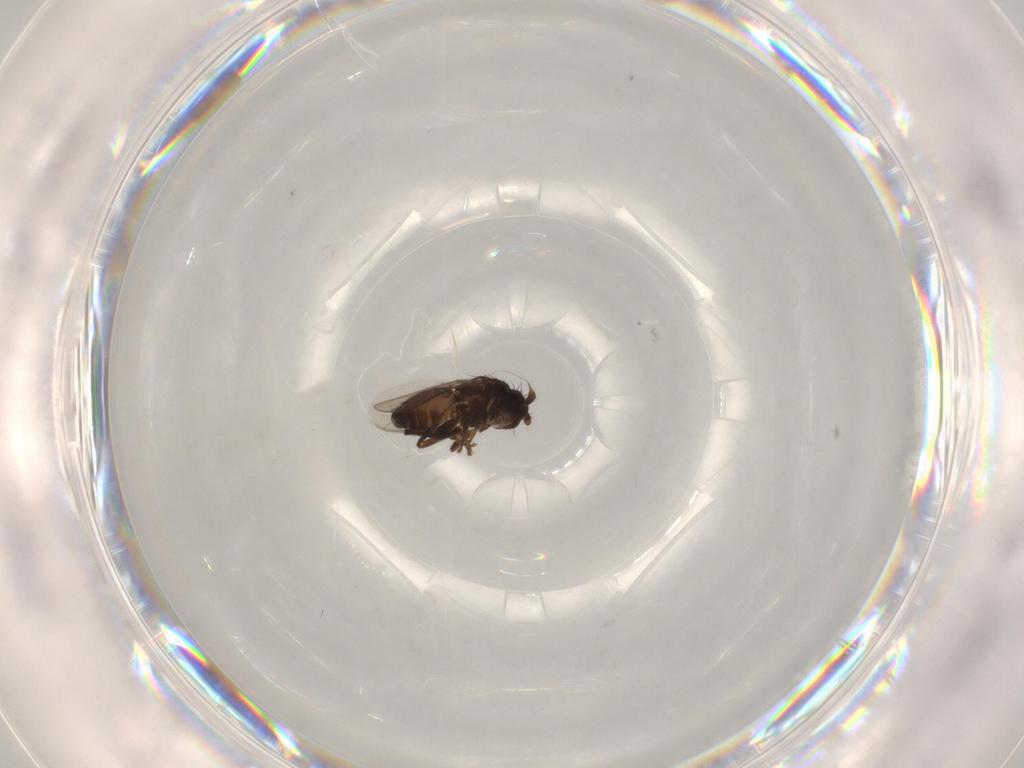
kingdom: Animalia
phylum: Arthropoda
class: Insecta
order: Diptera
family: Sphaeroceridae
